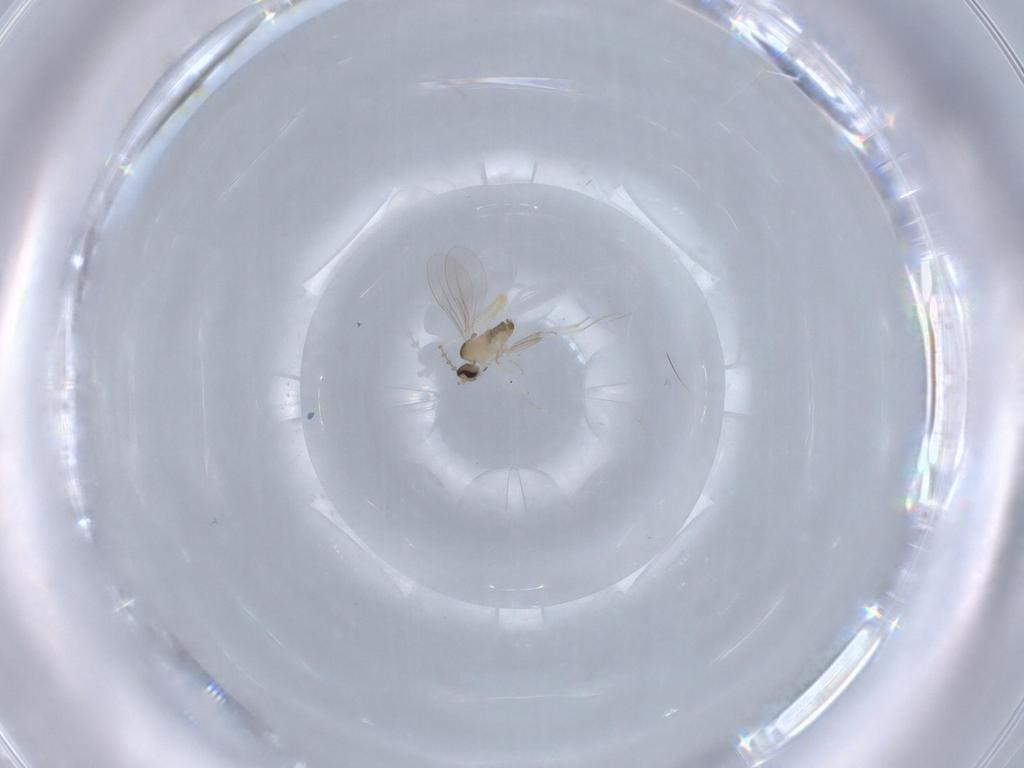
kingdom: Animalia
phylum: Arthropoda
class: Insecta
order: Diptera
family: Cecidomyiidae
